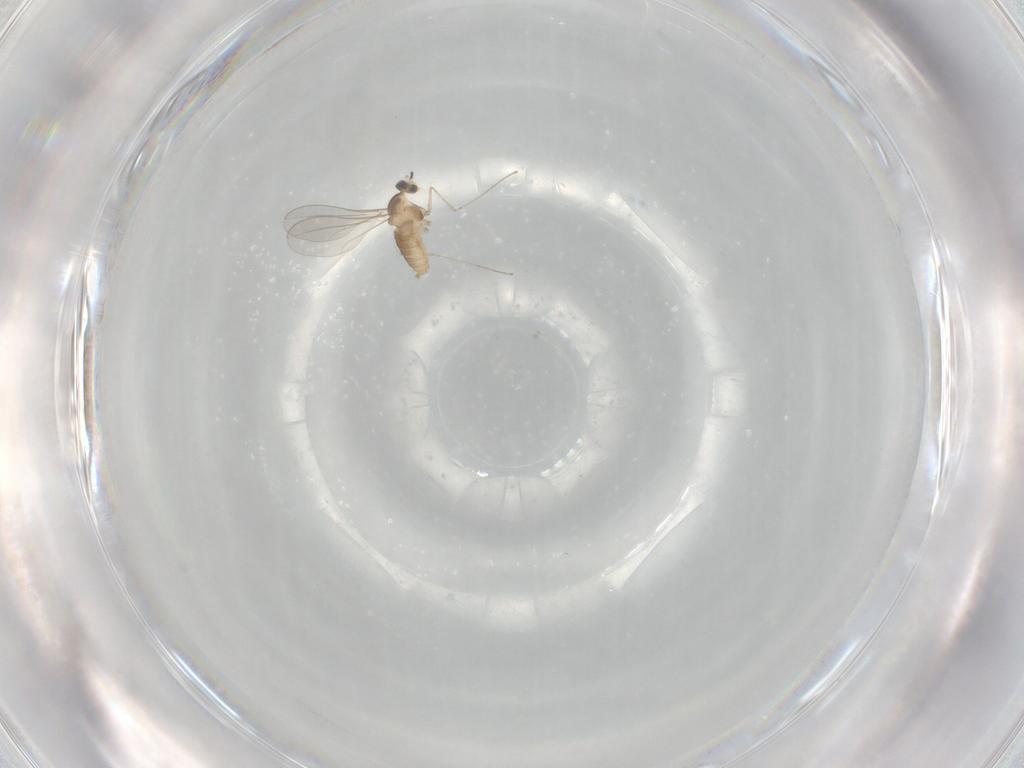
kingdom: Animalia
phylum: Arthropoda
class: Insecta
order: Diptera
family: Cecidomyiidae
